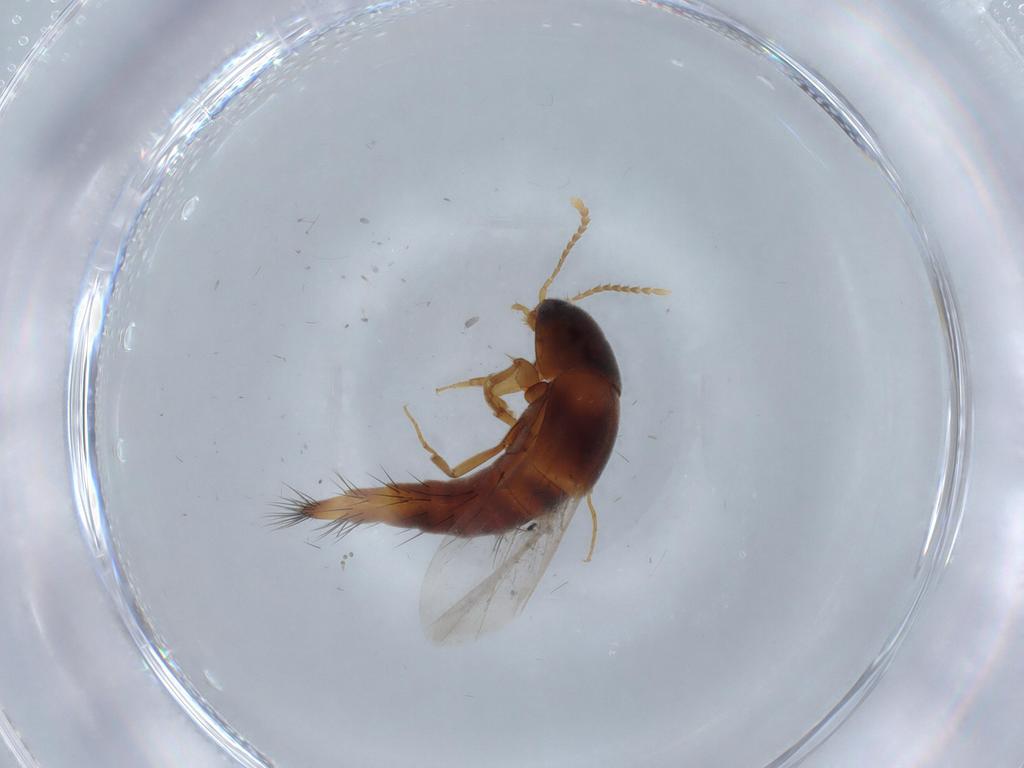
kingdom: Animalia
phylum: Arthropoda
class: Insecta
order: Coleoptera
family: Staphylinidae
